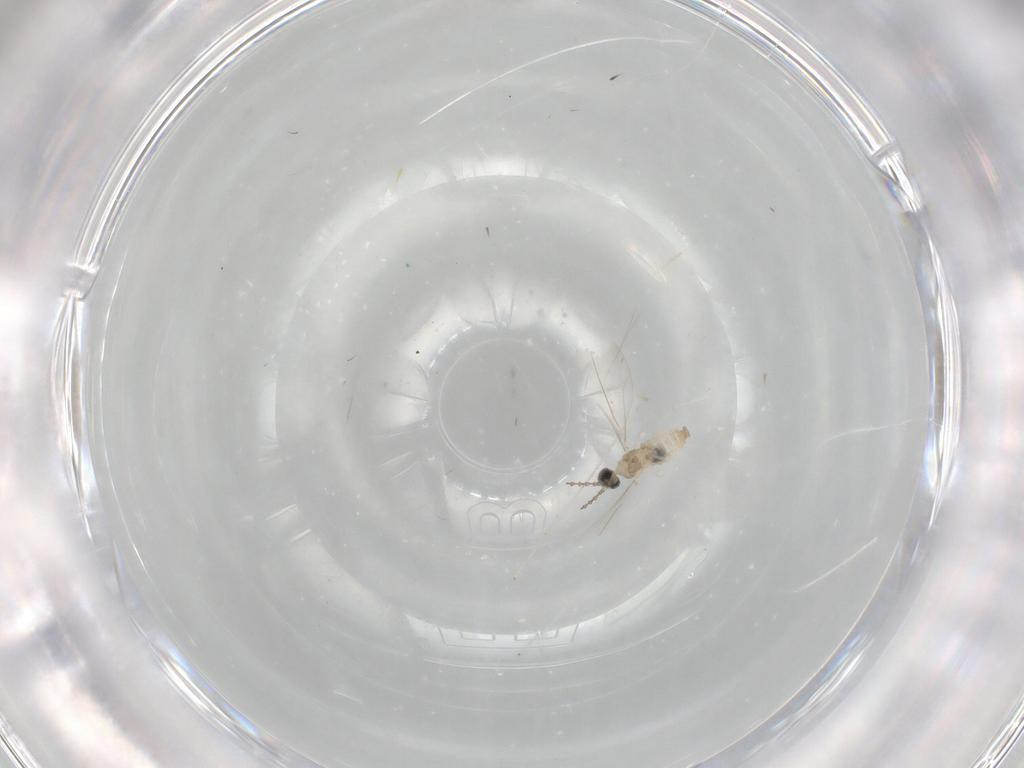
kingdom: Animalia
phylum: Arthropoda
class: Insecta
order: Diptera
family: Cecidomyiidae
